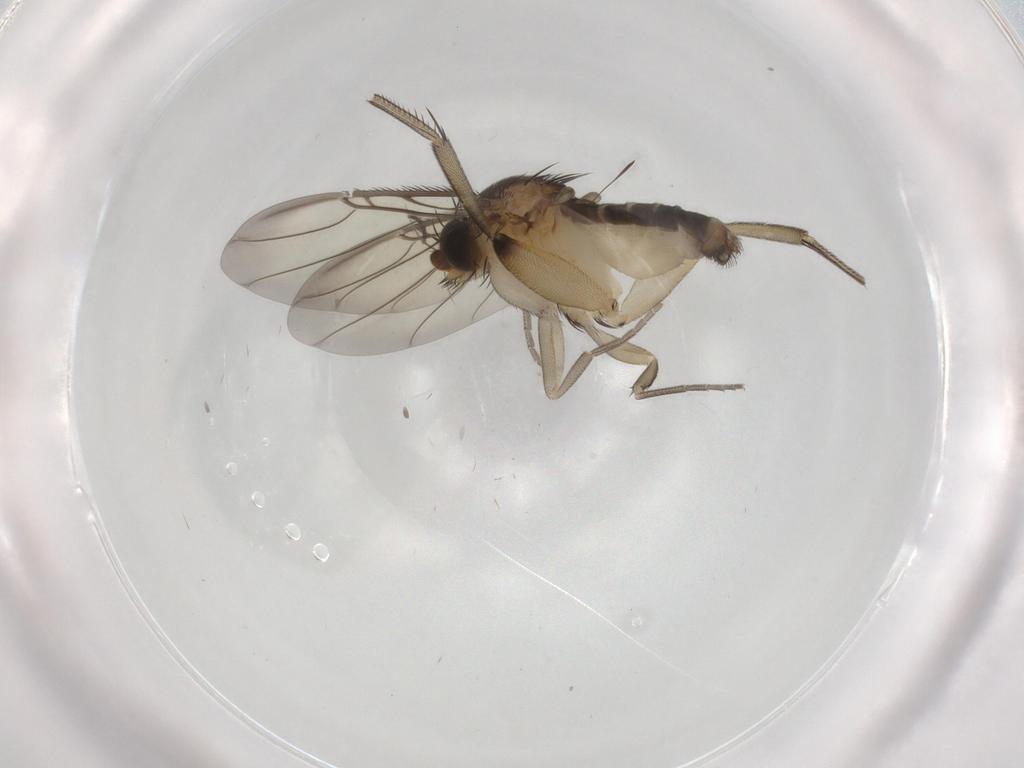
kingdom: Animalia
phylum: Arthropoda
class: Insecta
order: Diptera
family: Phoridae
